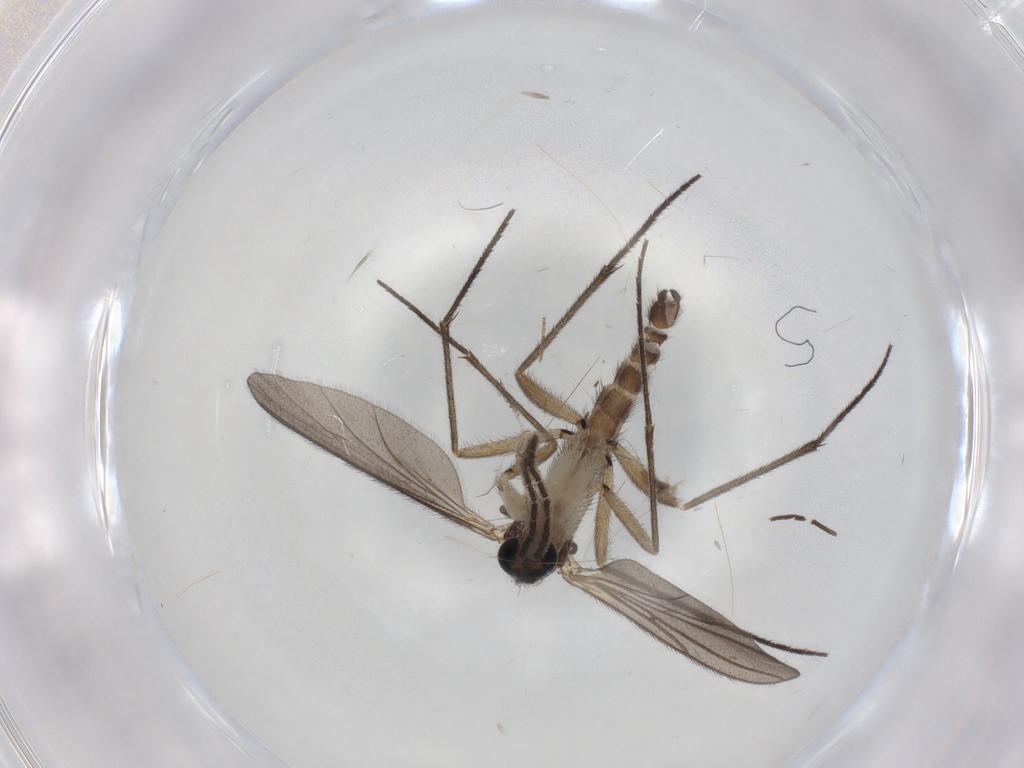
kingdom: Animalia
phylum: Arthropoda
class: Insecta
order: Diptera
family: Sciaridae
